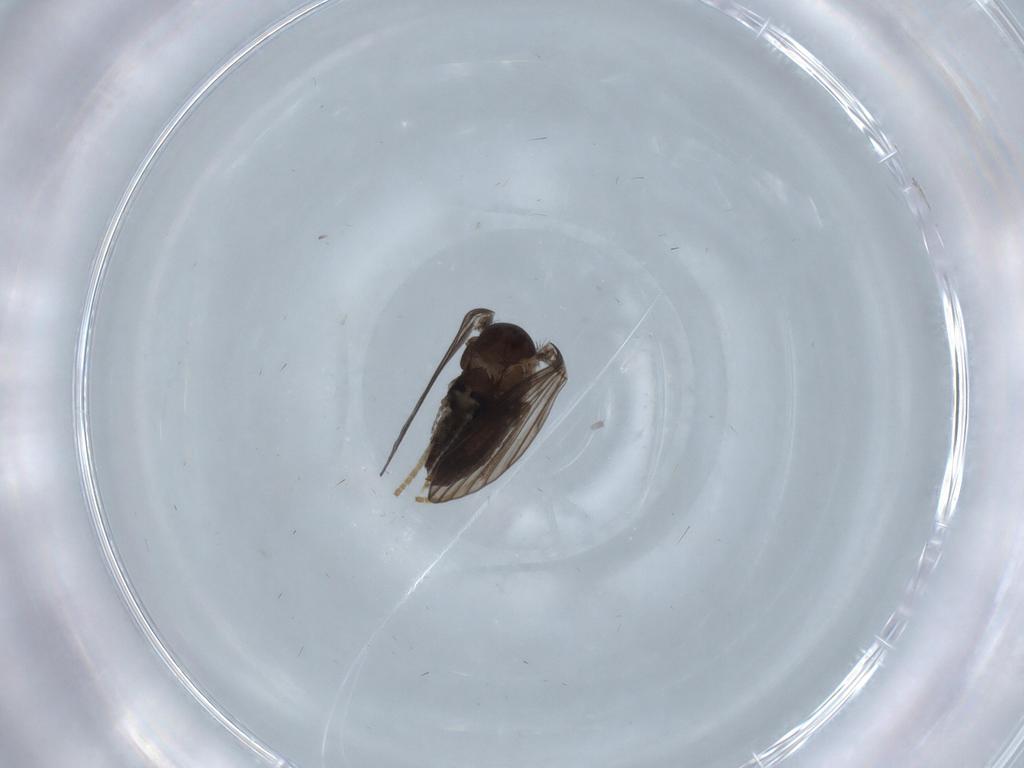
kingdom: Animalia
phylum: Arthropoda
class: Insecta
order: Diptera
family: Psychodidae
